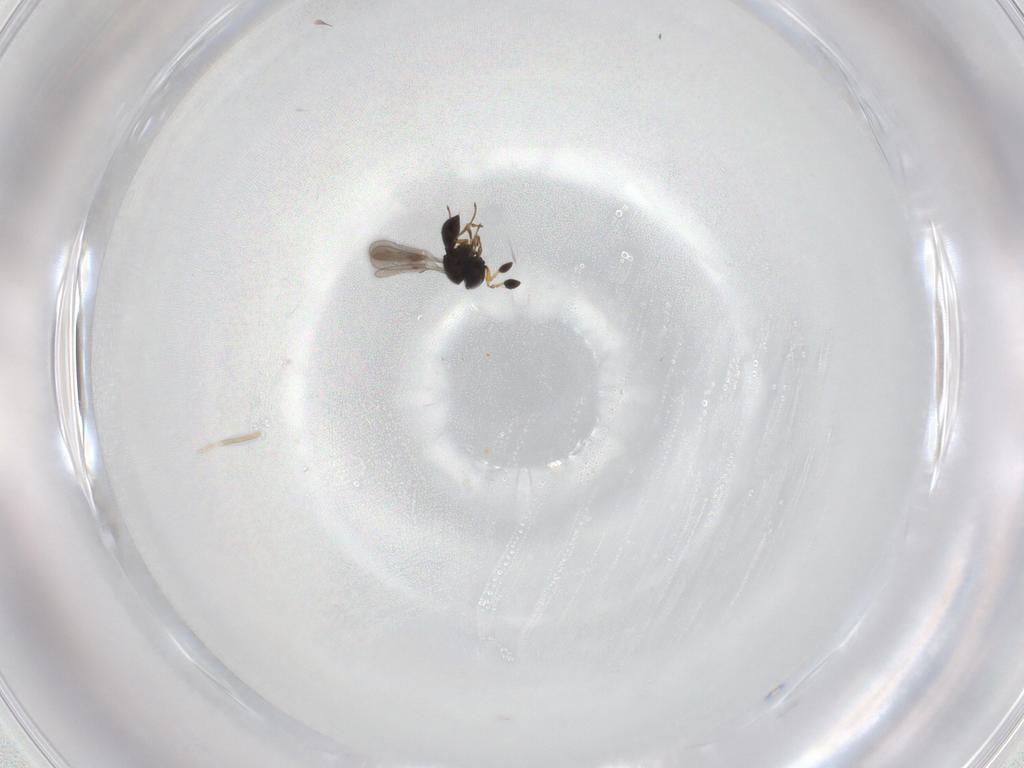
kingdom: Animalia
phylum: Arthropoda
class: Insecta
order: Hymenoptera
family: Scelionidae
